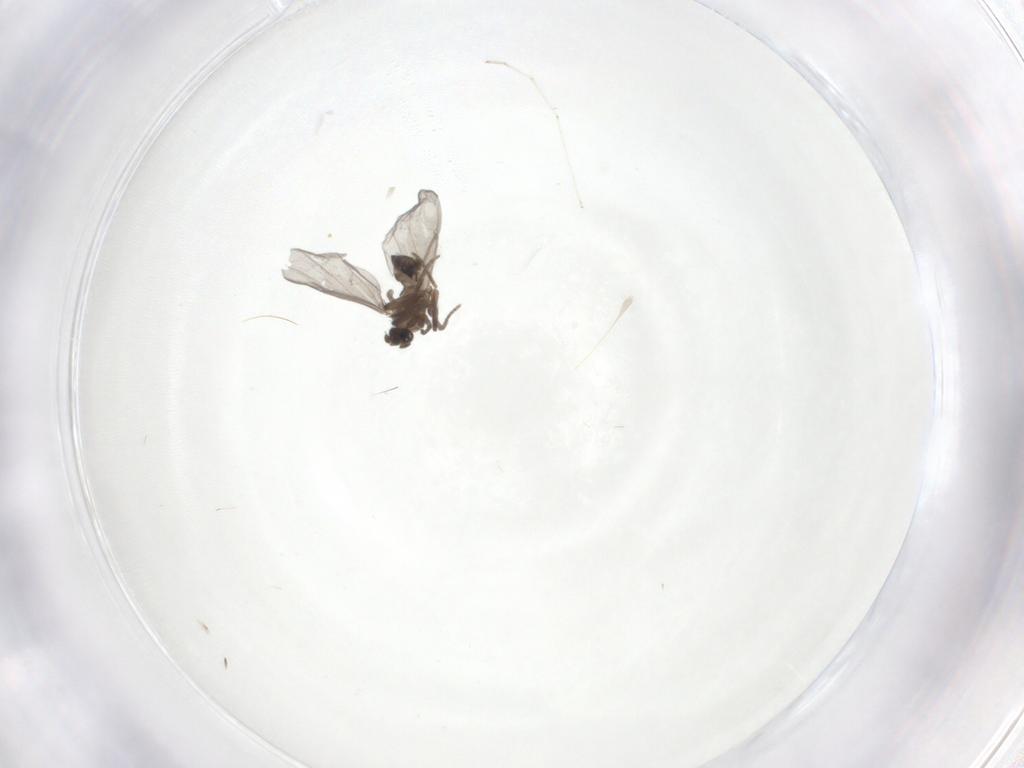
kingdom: Animalia
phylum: Arthropoda
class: Insecta
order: Diptera
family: Phoridae
